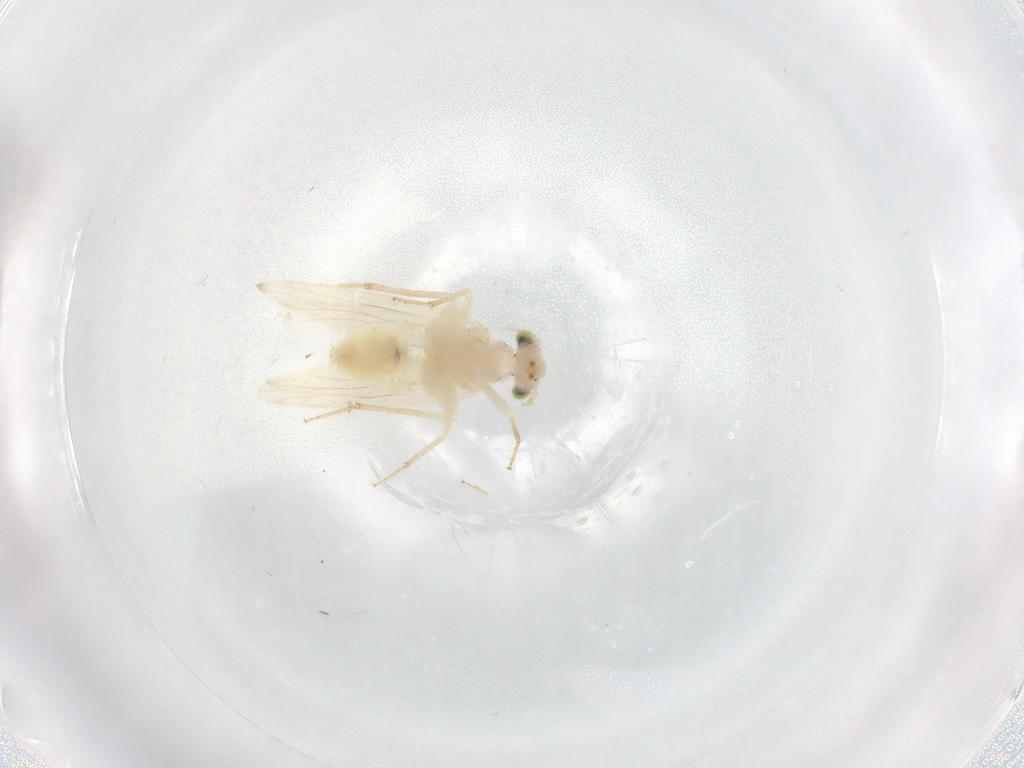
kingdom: Animalia
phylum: Arthropoda
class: Insecta
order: Psocodea
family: Lepidopsocidae
